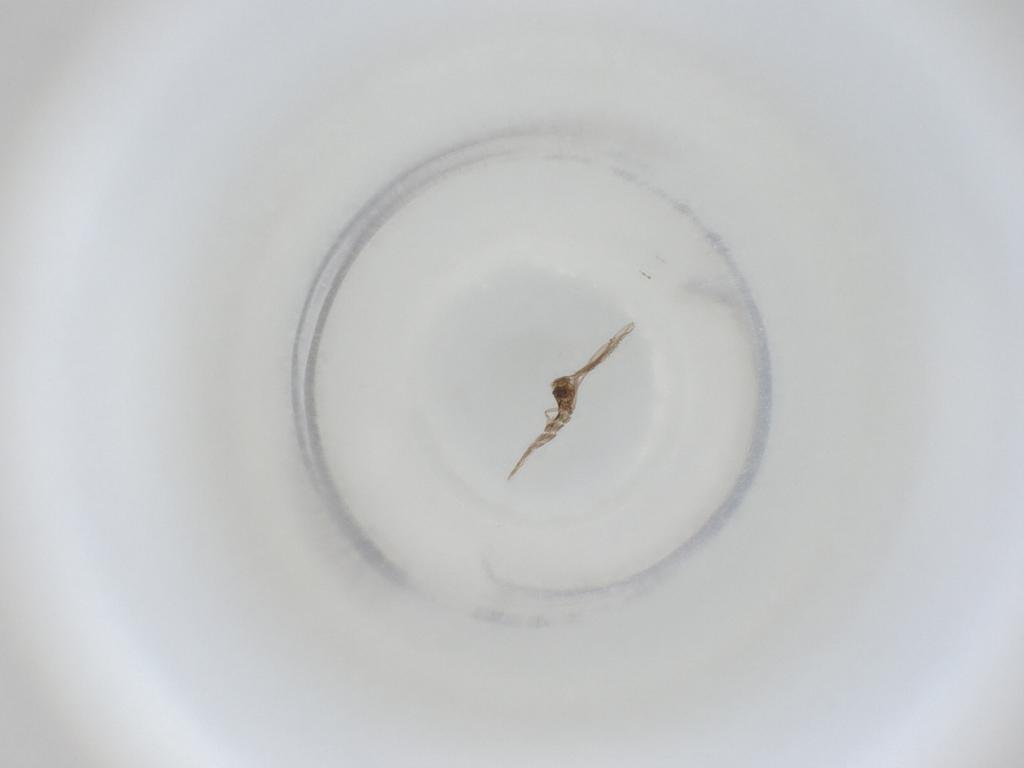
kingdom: Animalia
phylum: Arthropoda
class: Insecta
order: Diptera
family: Cecidomyiidae
